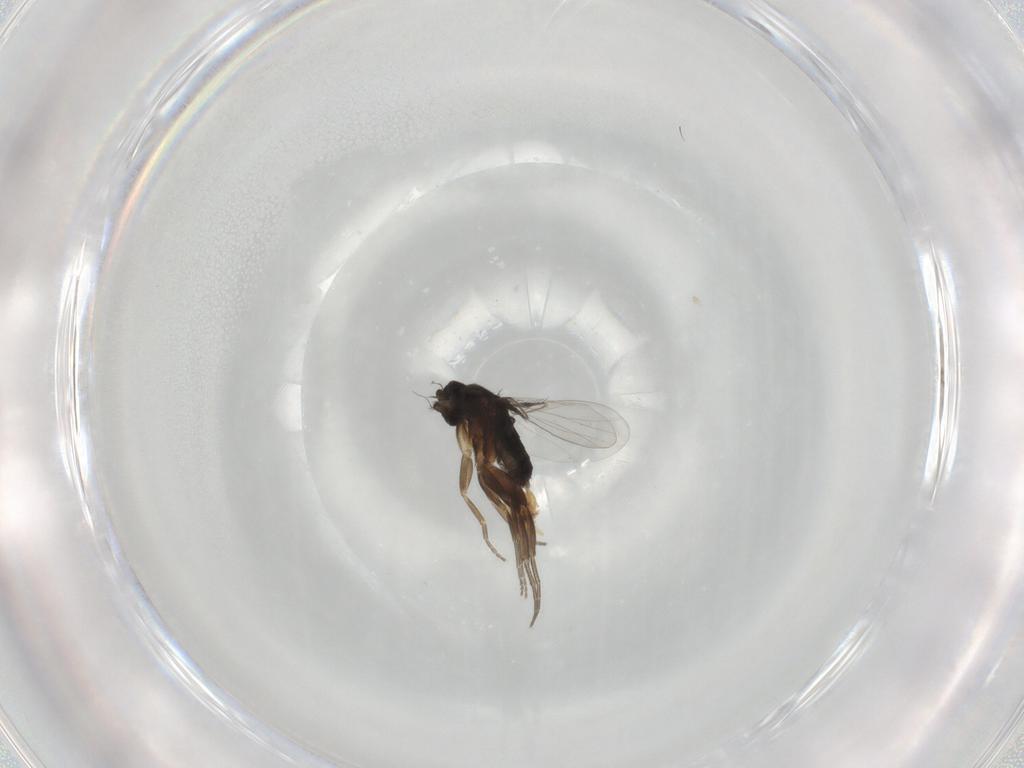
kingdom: Animalia
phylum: Arthropoda
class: Insecta
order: Diptera
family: Phoridae
